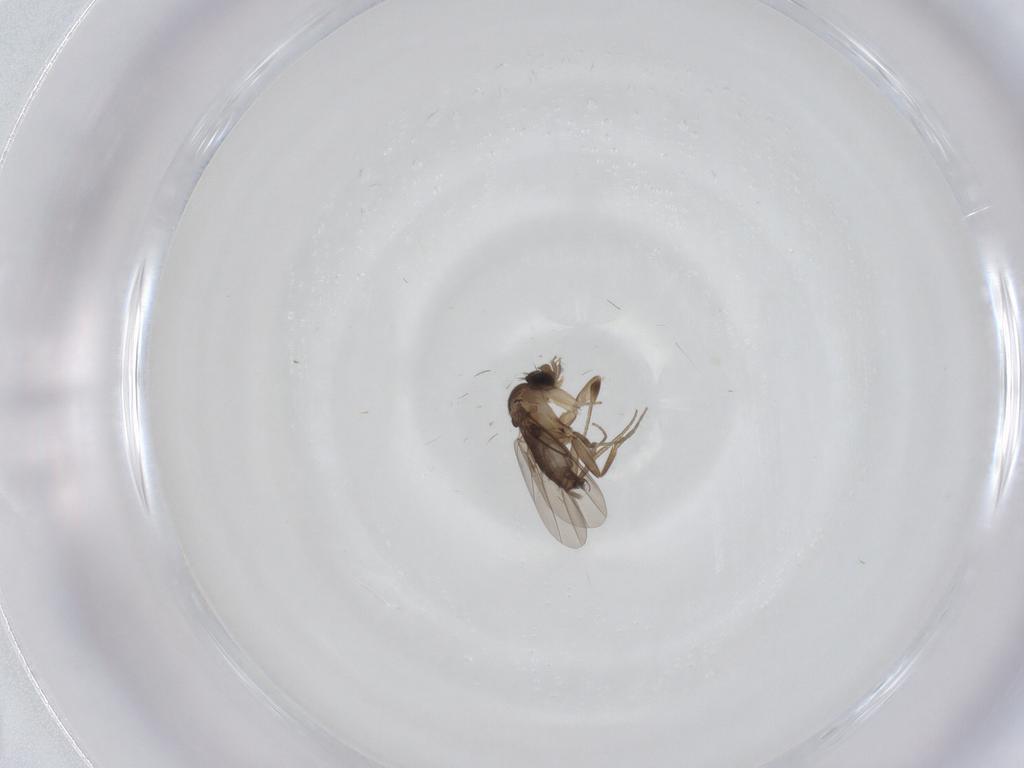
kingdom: Animalia
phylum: Arthropoda
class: Insecta
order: Diptera
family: Phoridae
